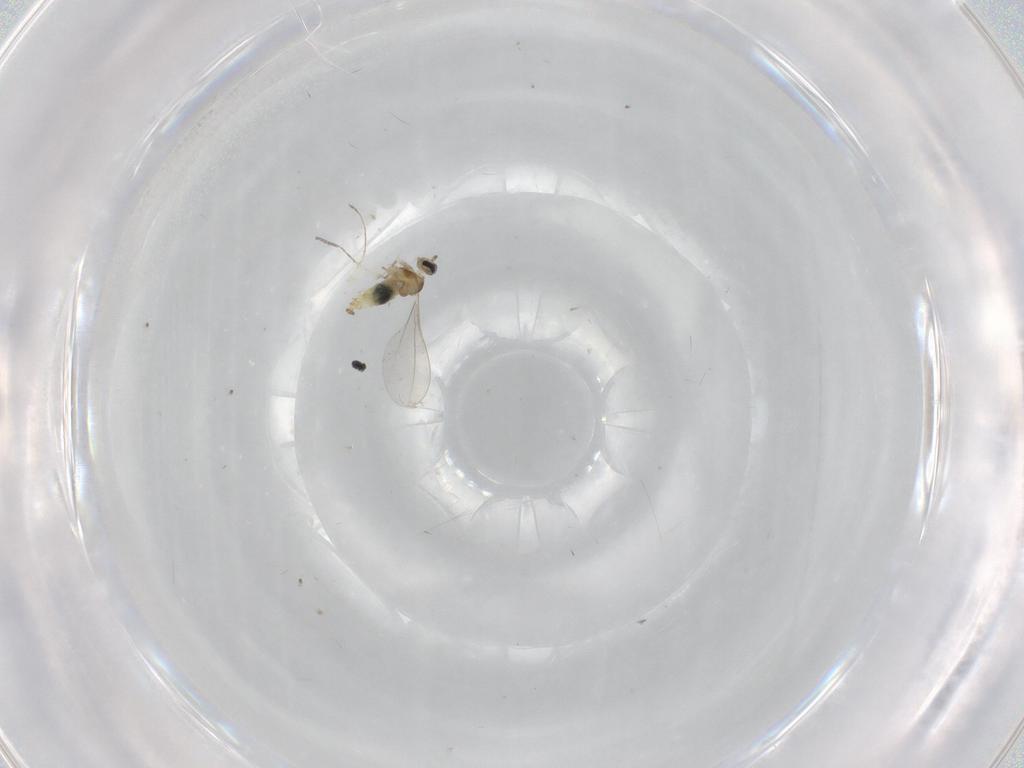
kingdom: Animalia
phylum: Arthropoda
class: Insecta
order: Diptera
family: Cecidomyiidae
